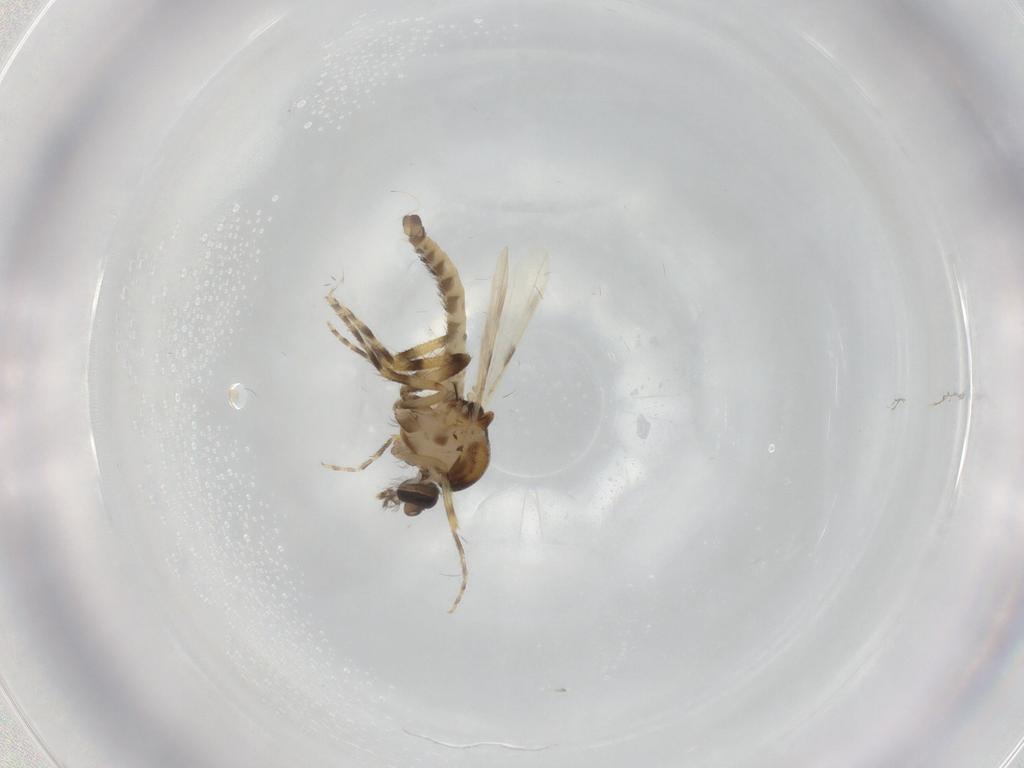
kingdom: Animalia
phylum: Arthropoda
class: Insecta
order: Diptera
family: Ceratopogonidae
